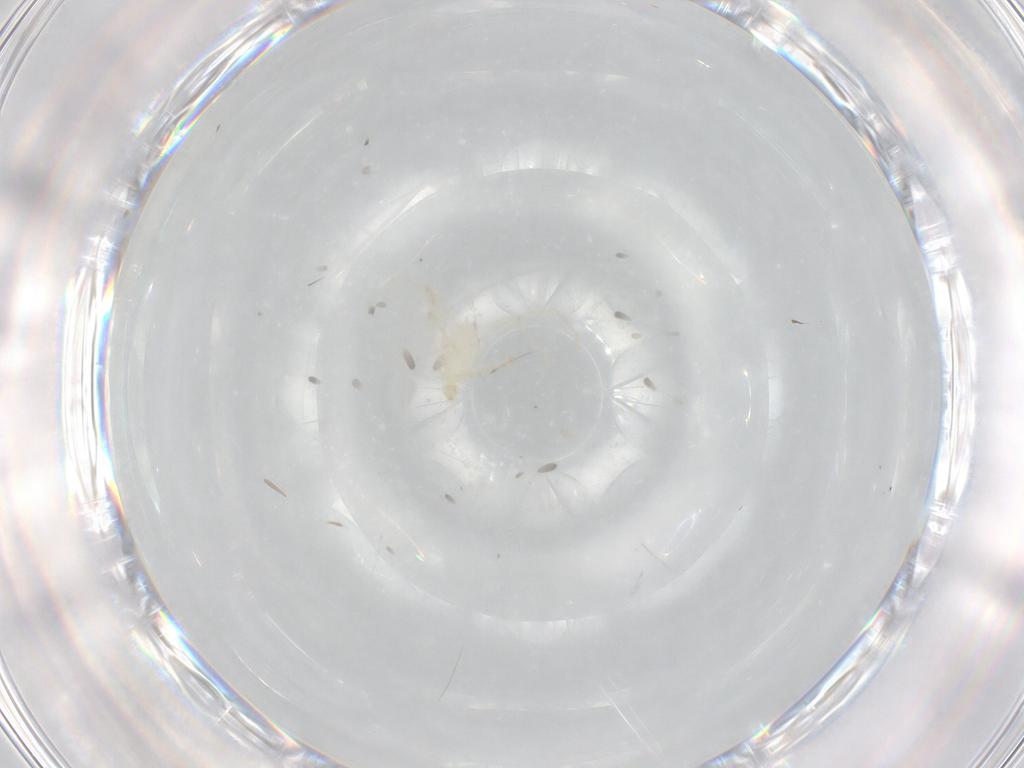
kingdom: Animalia
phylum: Arthropoda
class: Arachnida
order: Trombidiformes
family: Erythraeidae
